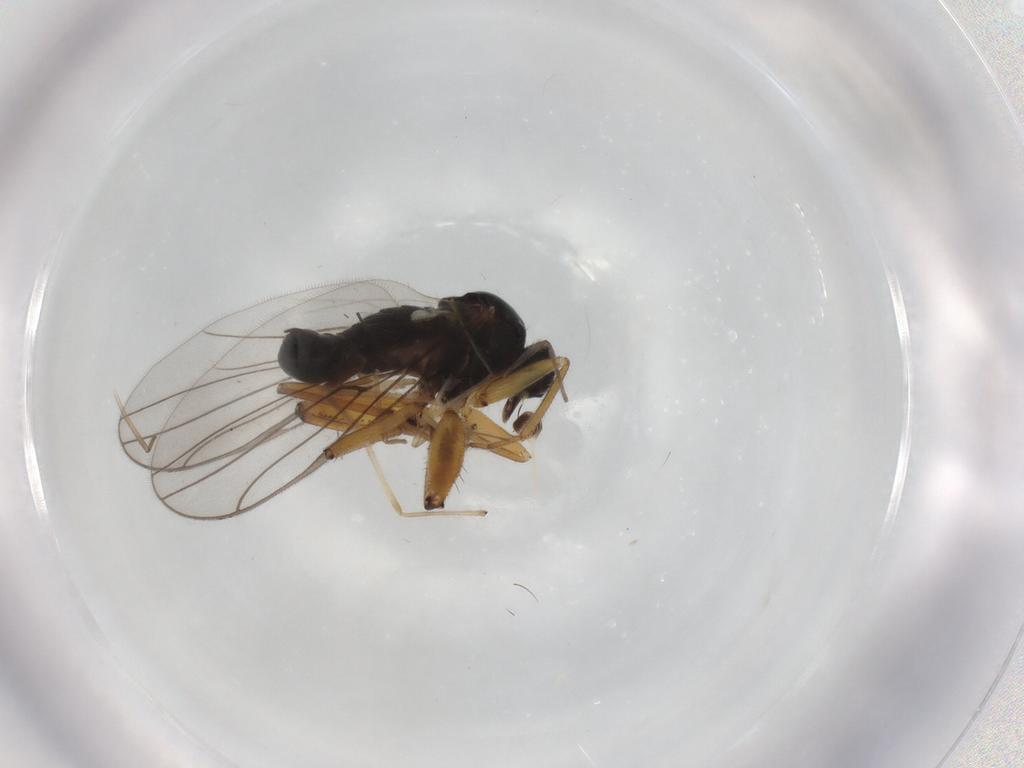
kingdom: Animalia
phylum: Arthropoda
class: Insecta
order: Diptera
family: Hybotidae
